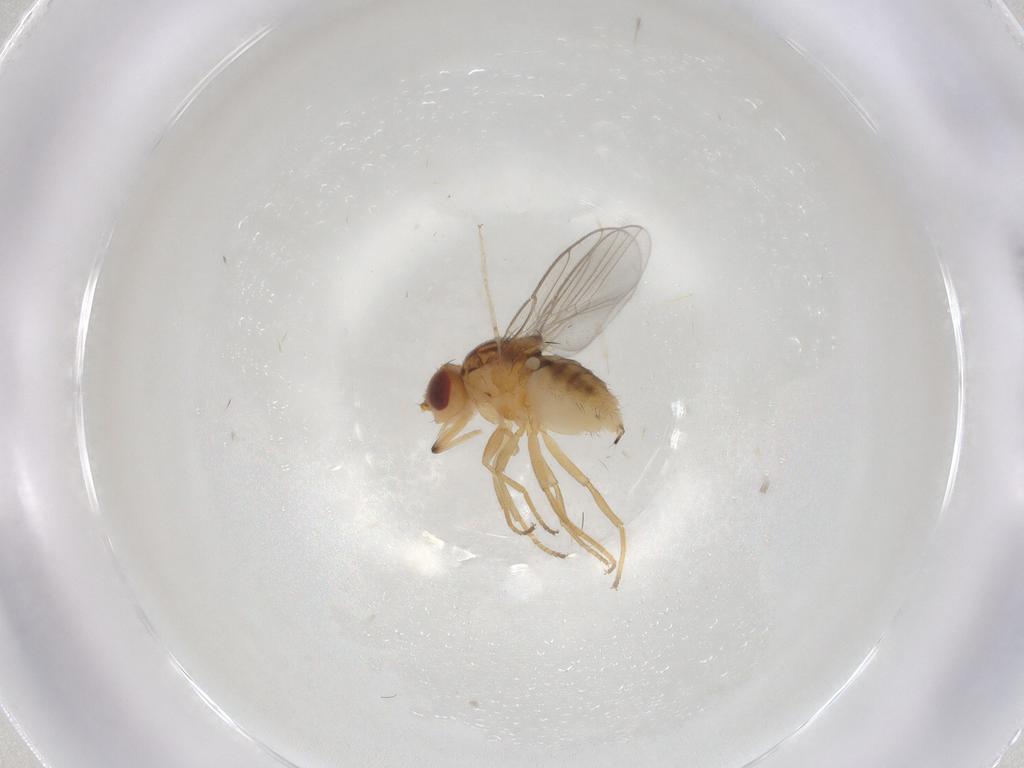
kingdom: Animalia
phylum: Arthropoda
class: Insecta
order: Diptera
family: Chloropidae
